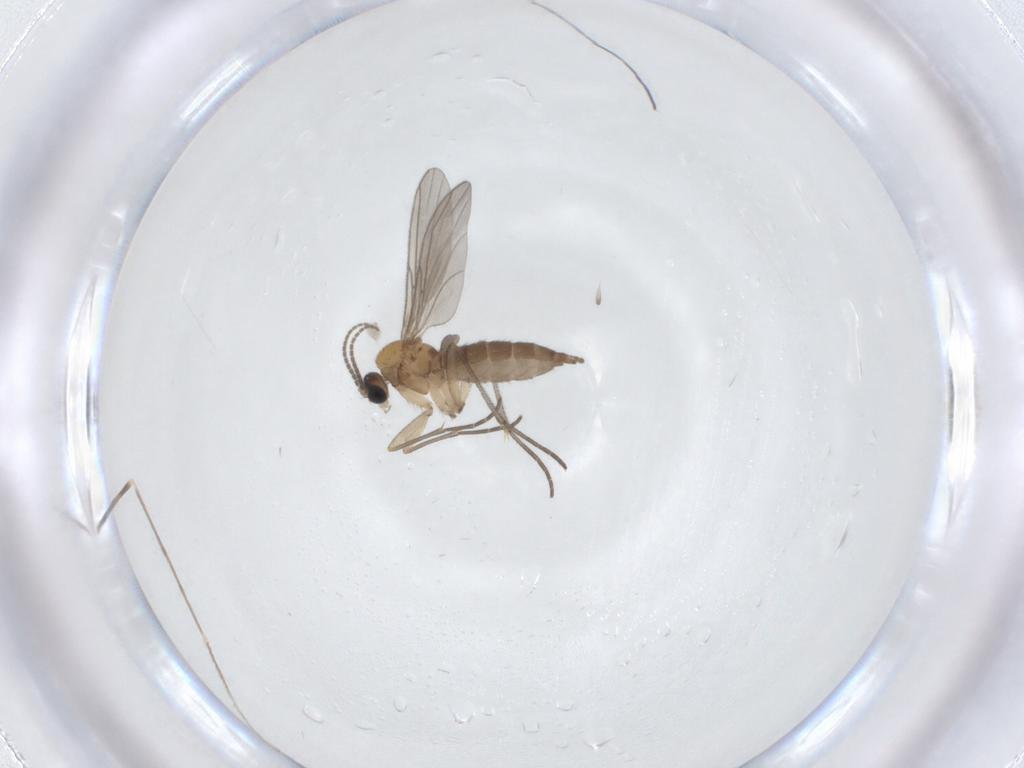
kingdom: Animalia
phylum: Arthropoda
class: Insecta
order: Diptera
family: Sciaridae
